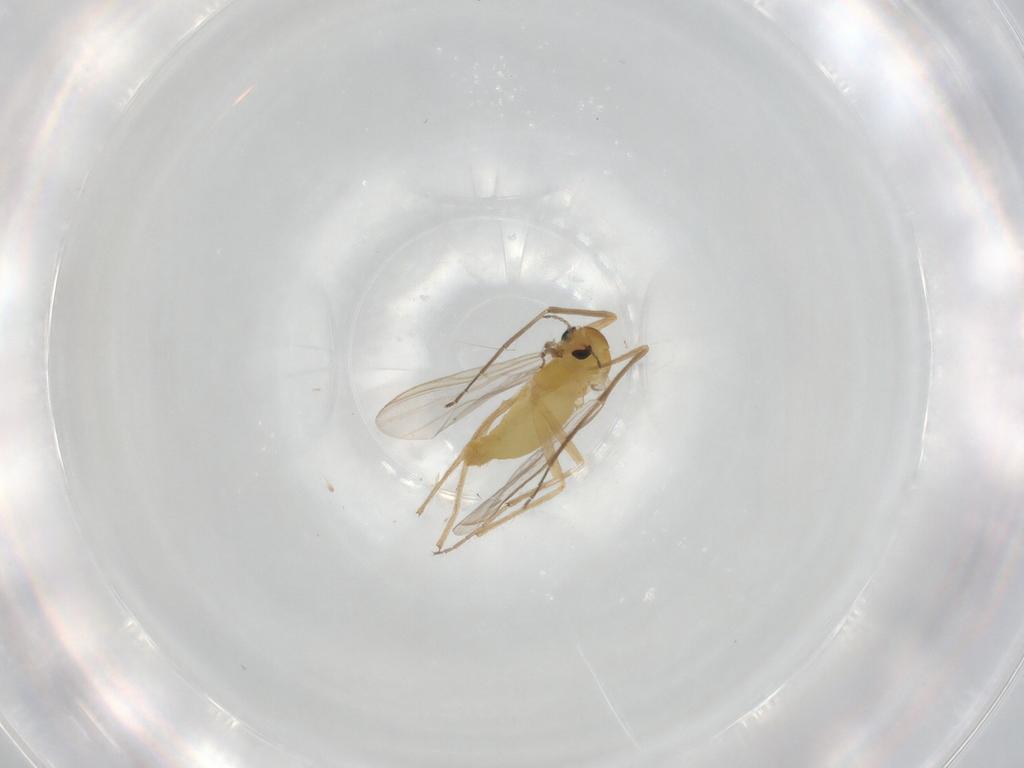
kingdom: Animalia
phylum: Arthropoda
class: Insecta
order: Diptera
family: Chironomidae
